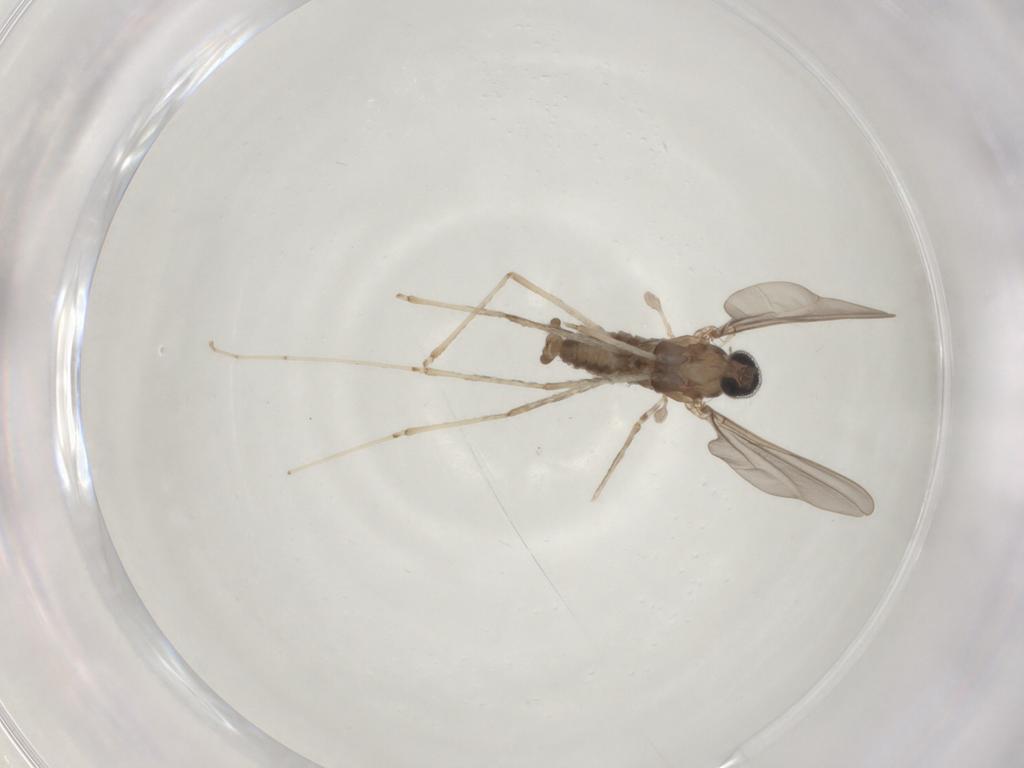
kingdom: Animalia
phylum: Arthropoda
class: Insecta
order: Diptera
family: Cecidomyiidae
